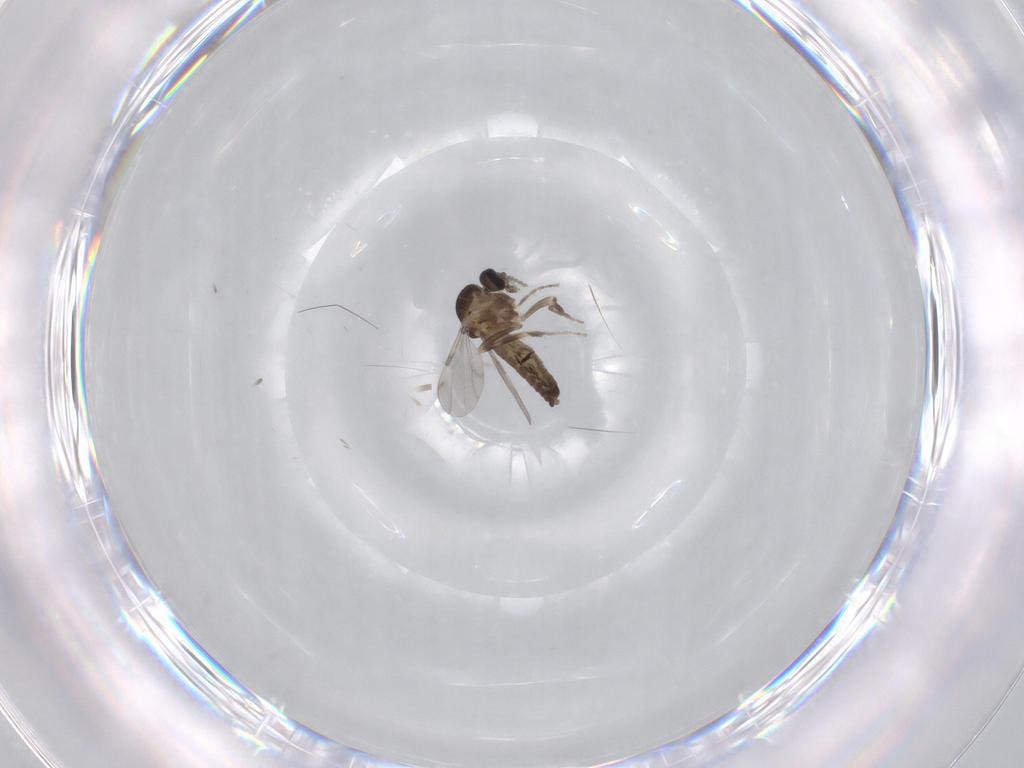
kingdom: Animalia
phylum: Arthropoda
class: Insecta
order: Diptera
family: Ceratopogonidae
